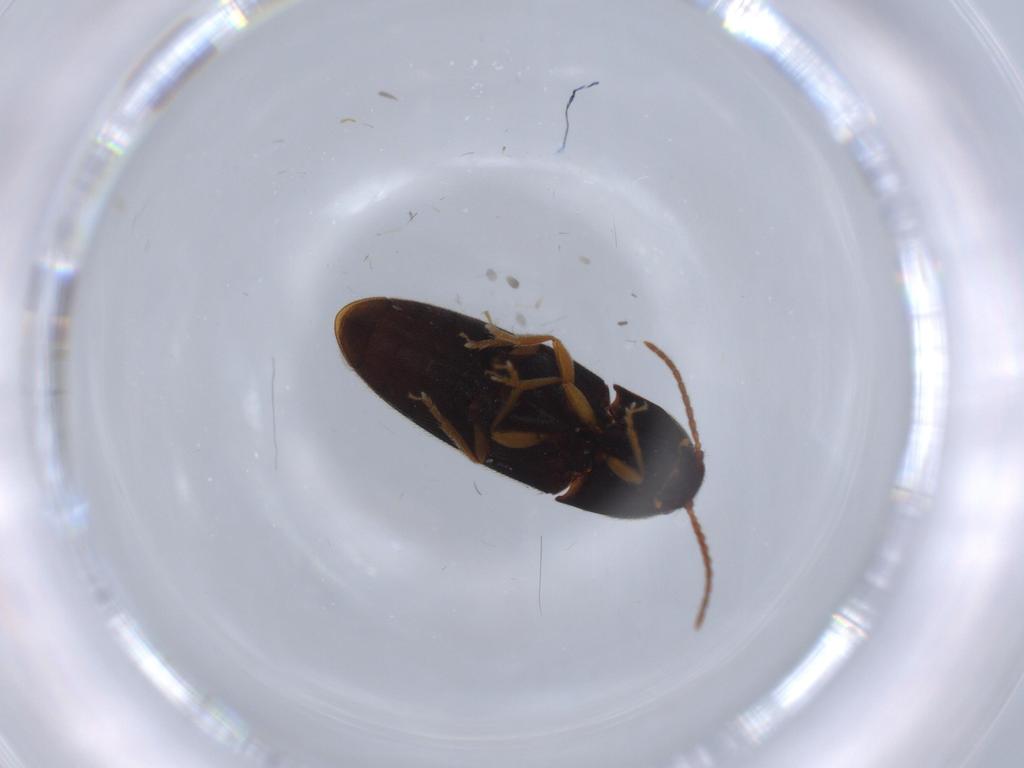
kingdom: Animalia
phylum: Arthropoda
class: Insecta
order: Coleoptera
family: Chrysomelidae
